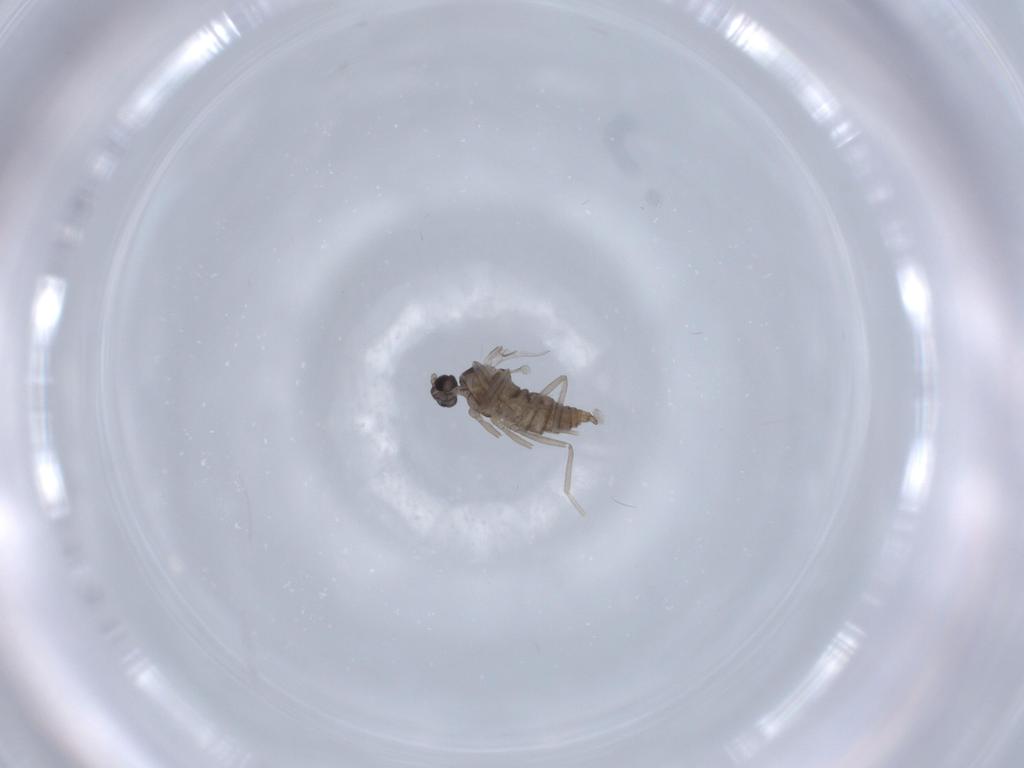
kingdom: Animalia
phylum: Arthropoda
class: Insecta
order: Diptera
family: Cecidomyiidae
